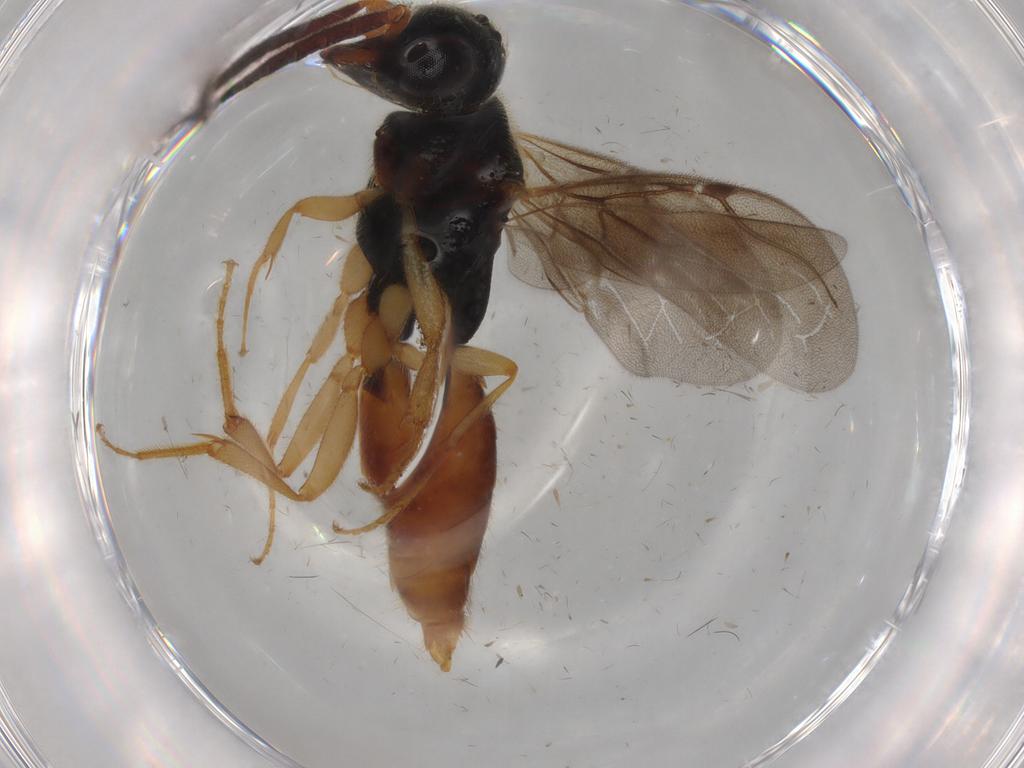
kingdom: Animalia
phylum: Arthropoda
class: Insecta
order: Hymenoptera
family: Bethylidae
